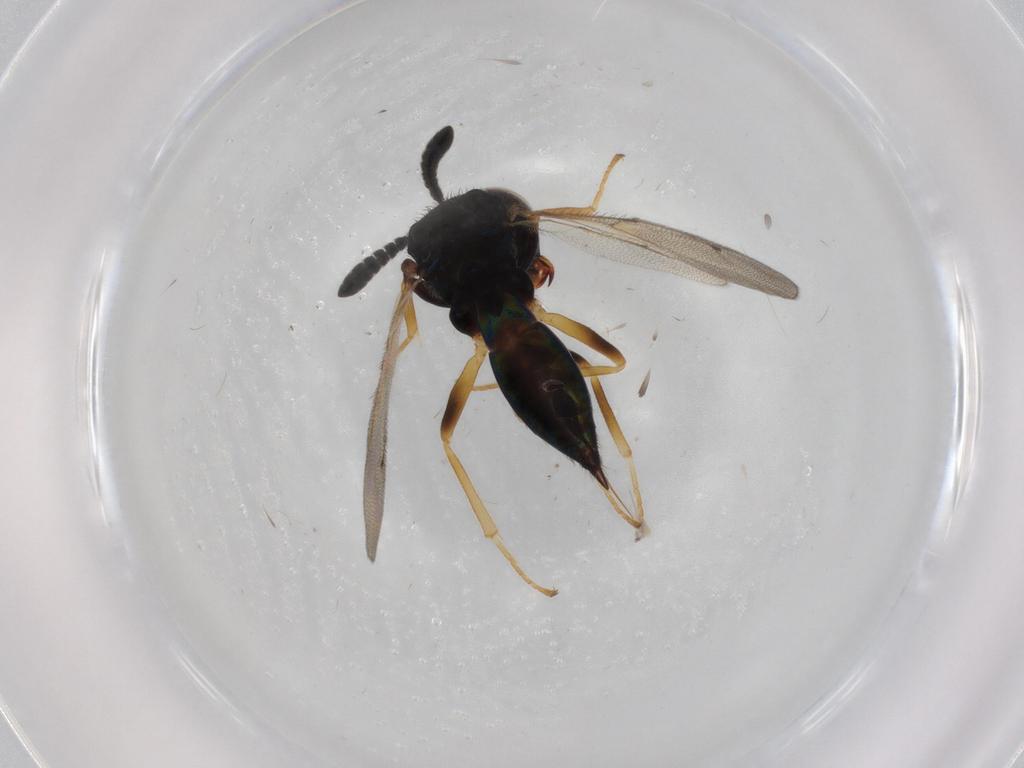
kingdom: Animalia
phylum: Arthropoda
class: Insecta
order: Hymenoptera
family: Pteromalidae
